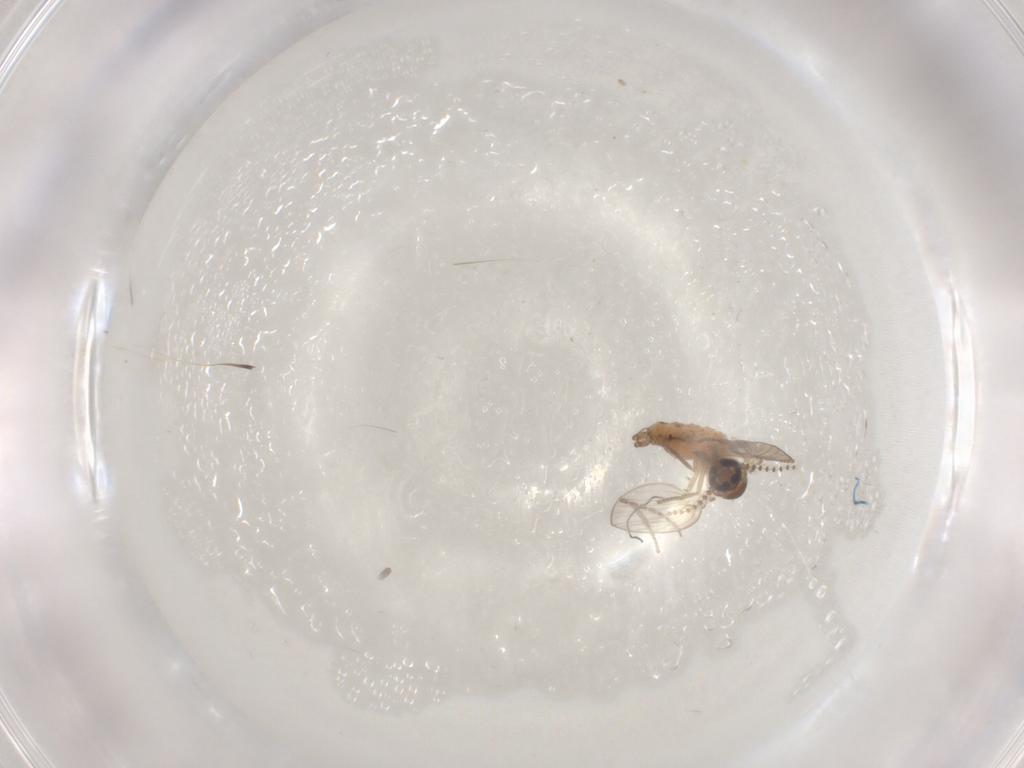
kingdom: Animalia
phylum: Arthropoda
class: Insecta
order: Diptera
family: Sciaridae
